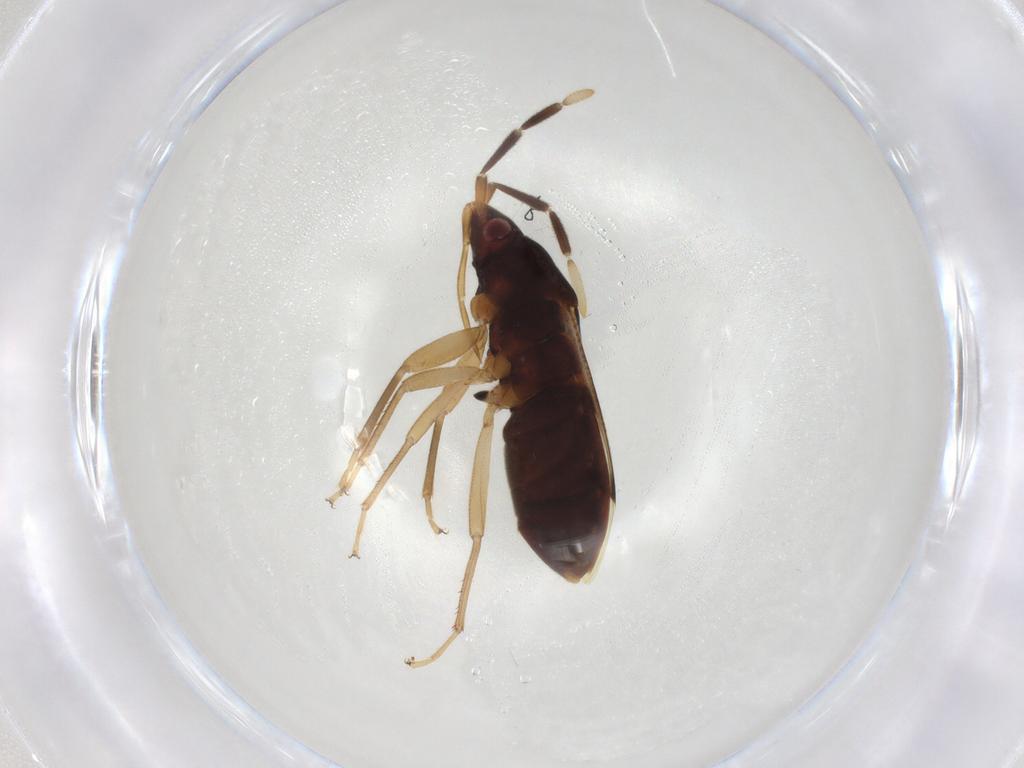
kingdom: Animalia
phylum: Arthropoda
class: Insecta
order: Hemiptera
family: Rhyparochromidae
